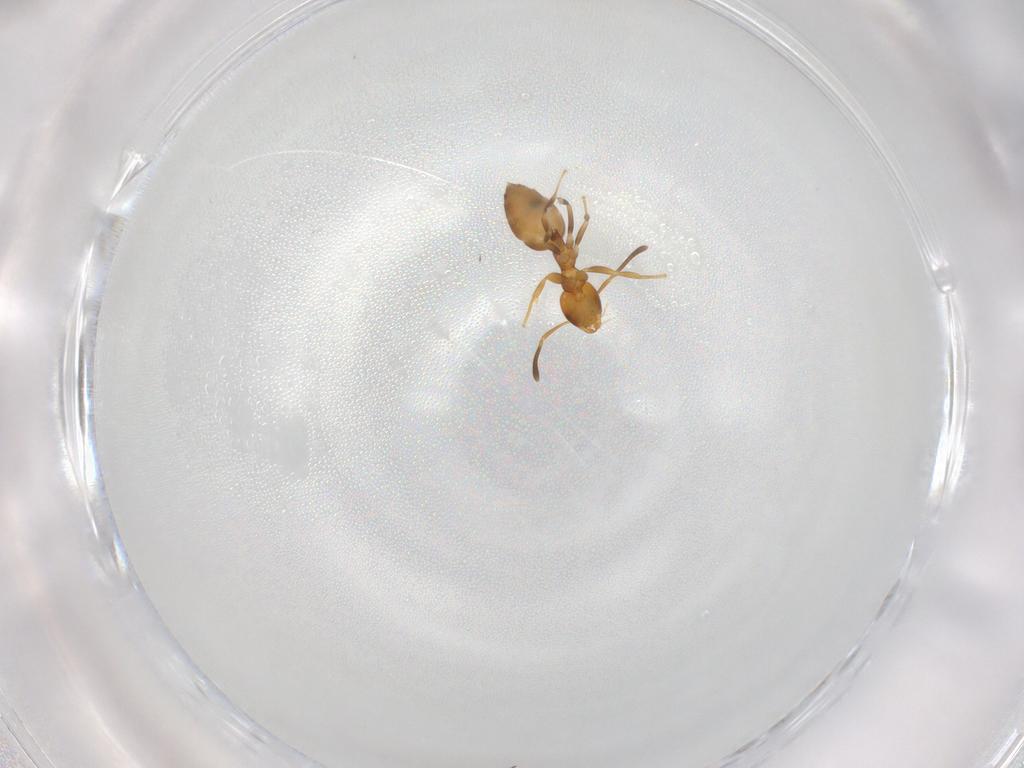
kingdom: Animalia
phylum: Arthropoda
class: Insecta
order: Hymenoptera
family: Formicidae
